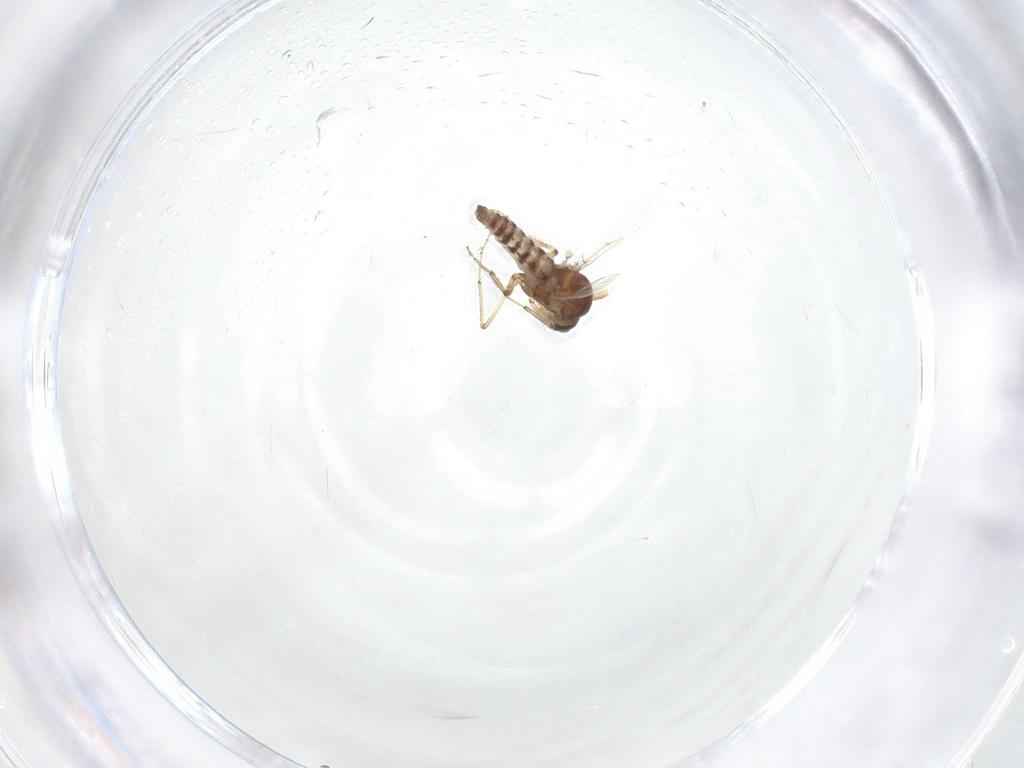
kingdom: Animalia
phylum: Arthropoda
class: Insecta
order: Diptera
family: Ceratopogonidae
